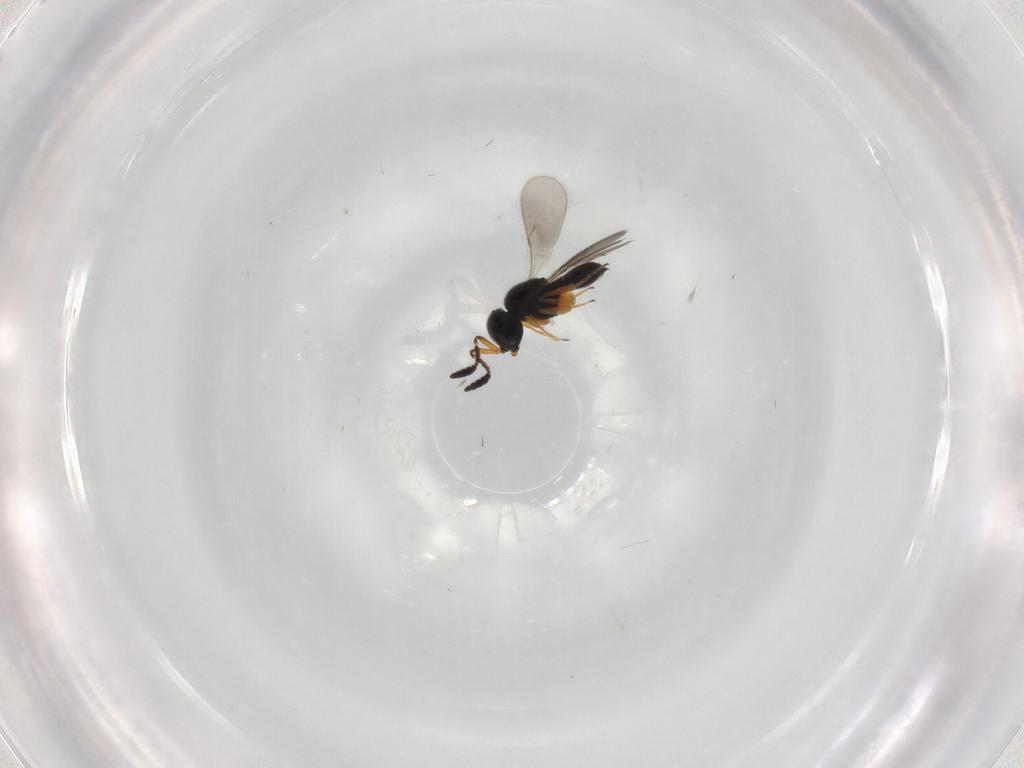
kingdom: Animalia
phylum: Arthropoda
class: Insecta
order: Hymenoptera
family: Scelionidae
